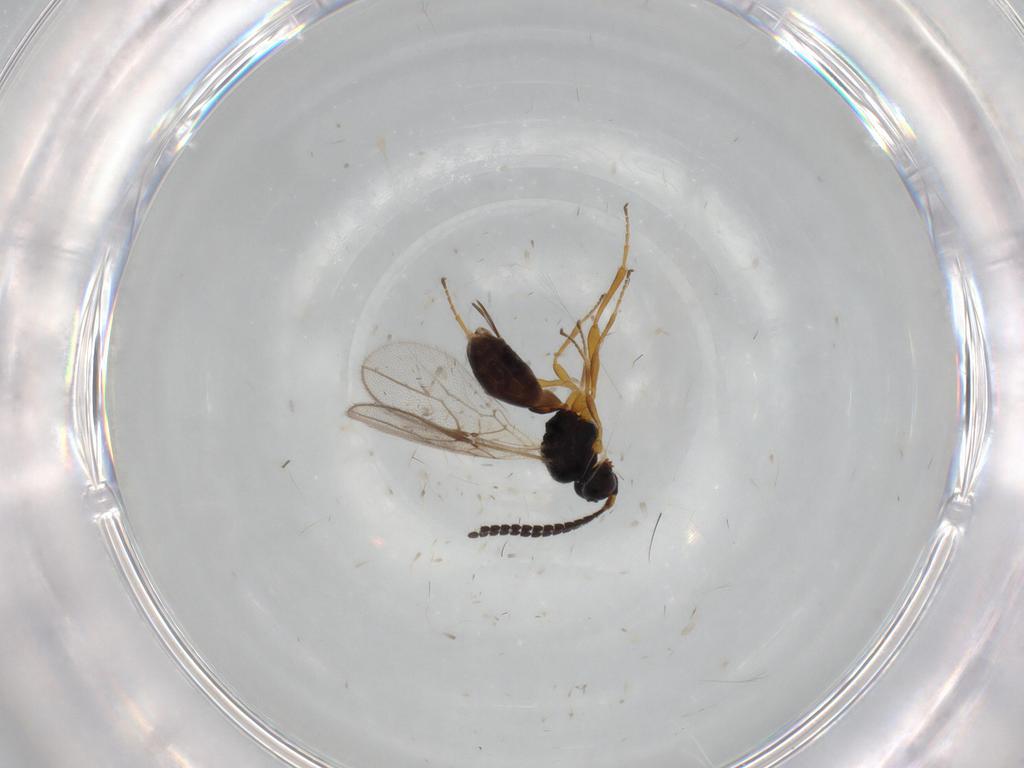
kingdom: Animalia
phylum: Arthropoda
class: Insecta
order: Hymenoptera
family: Braconidae
